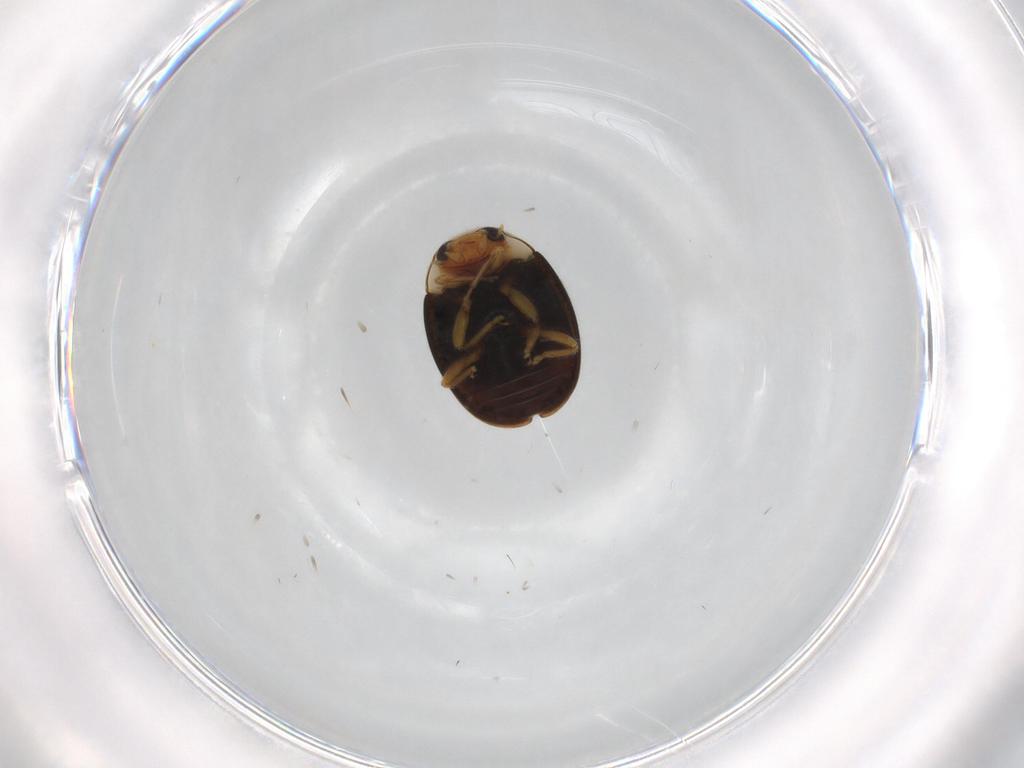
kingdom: Animalia
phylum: Arthropoda
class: Insecta
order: Coleoptera
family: Coccinellidae
